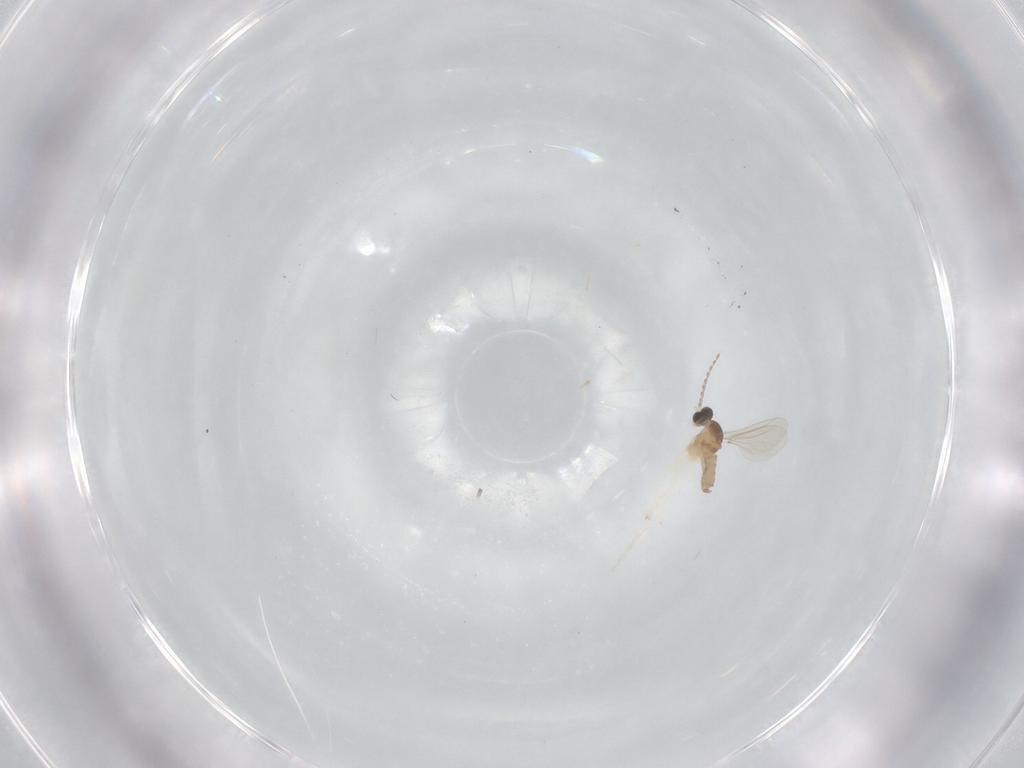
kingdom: Animalia
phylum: Arthropoda
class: Insecta
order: Diptera
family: Cecidomyiidae
